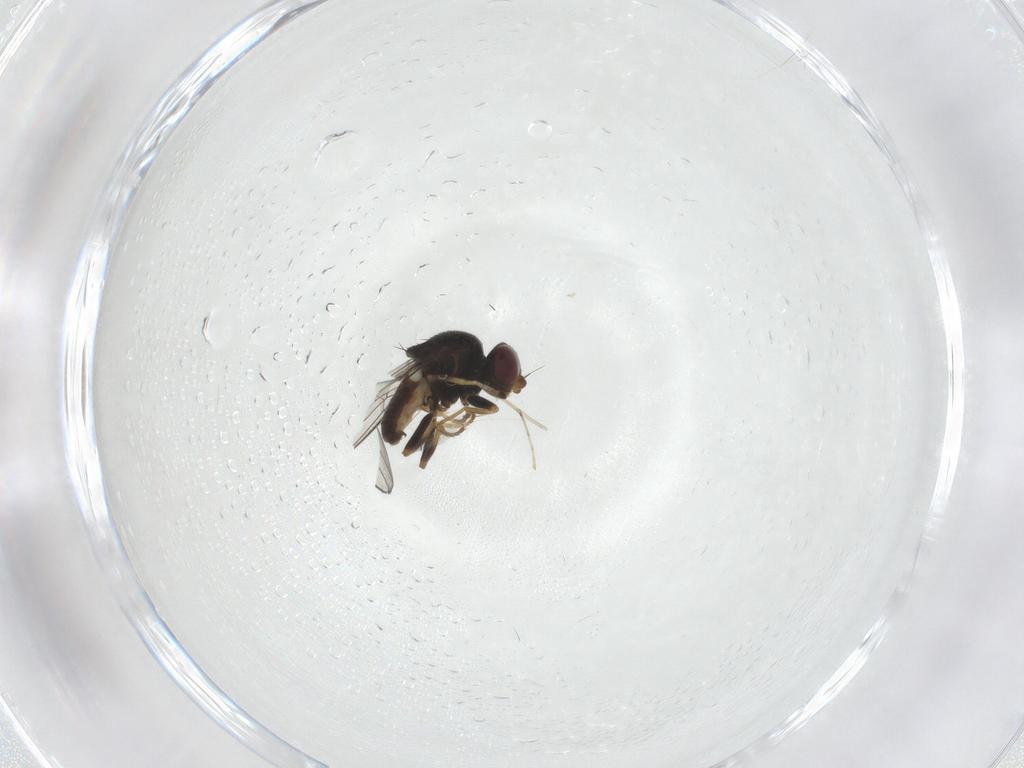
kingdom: Animalia
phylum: Arthropoda
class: Insecta
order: Diptera
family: Chloropidae
